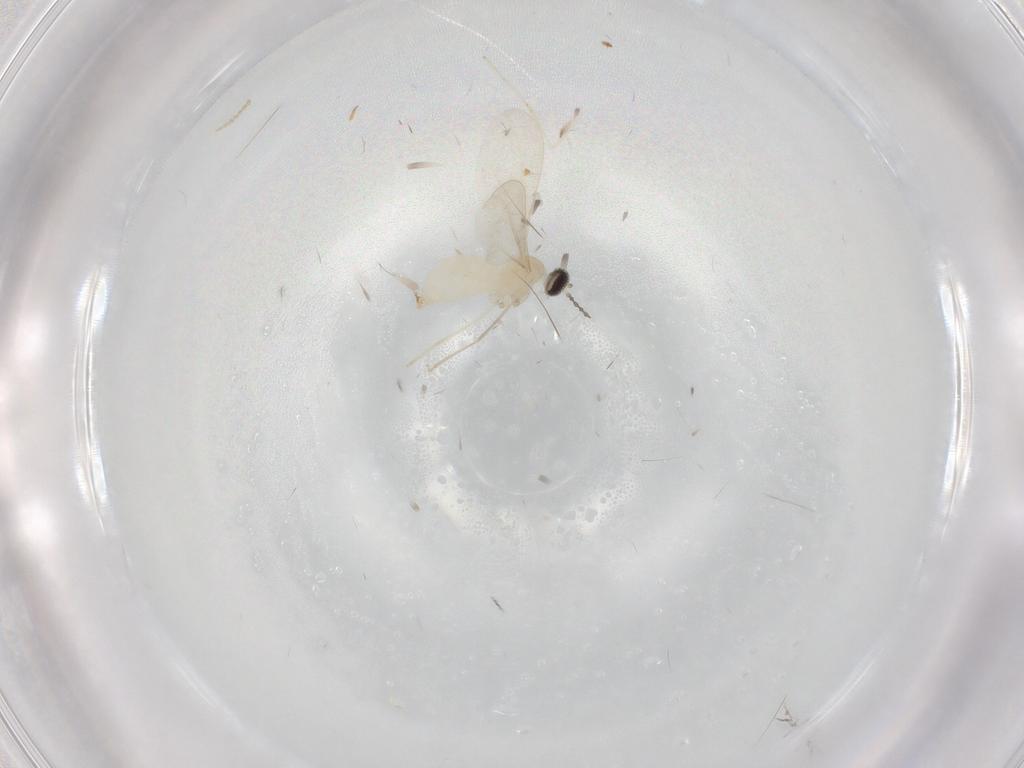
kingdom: Animalia
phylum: Arthropoda
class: Insecta
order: Diptera
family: Cecidomyiidae
